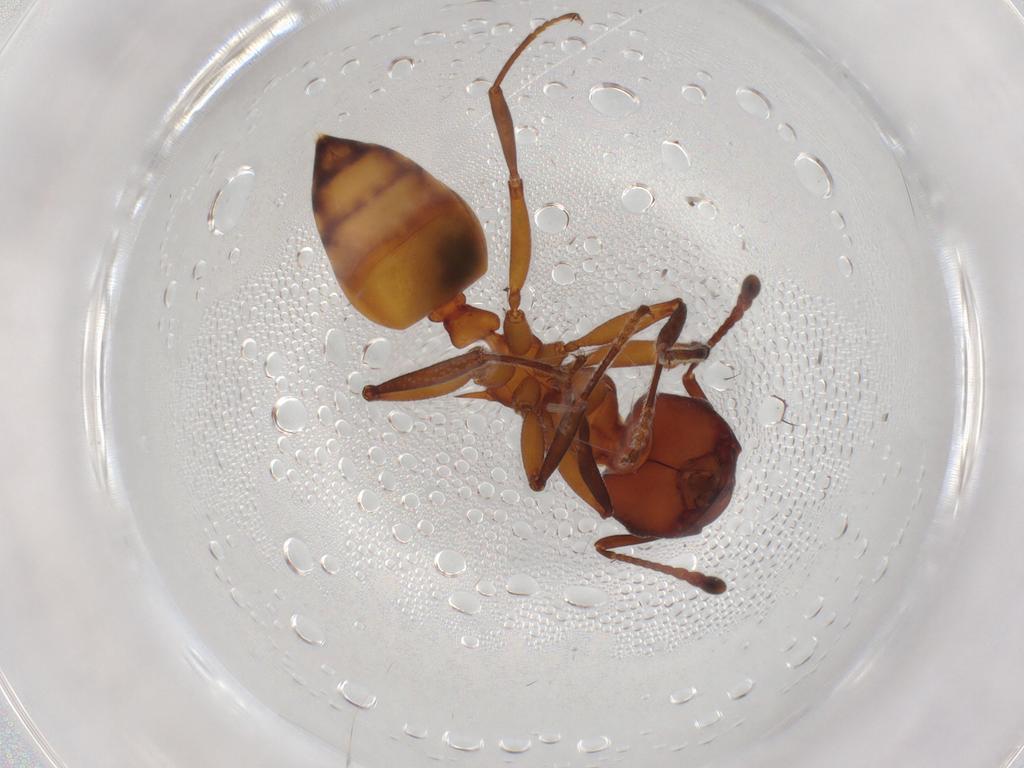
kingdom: Animalia
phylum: Arthropoda
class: Insecta
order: Hymenoptera
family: Formicidae
